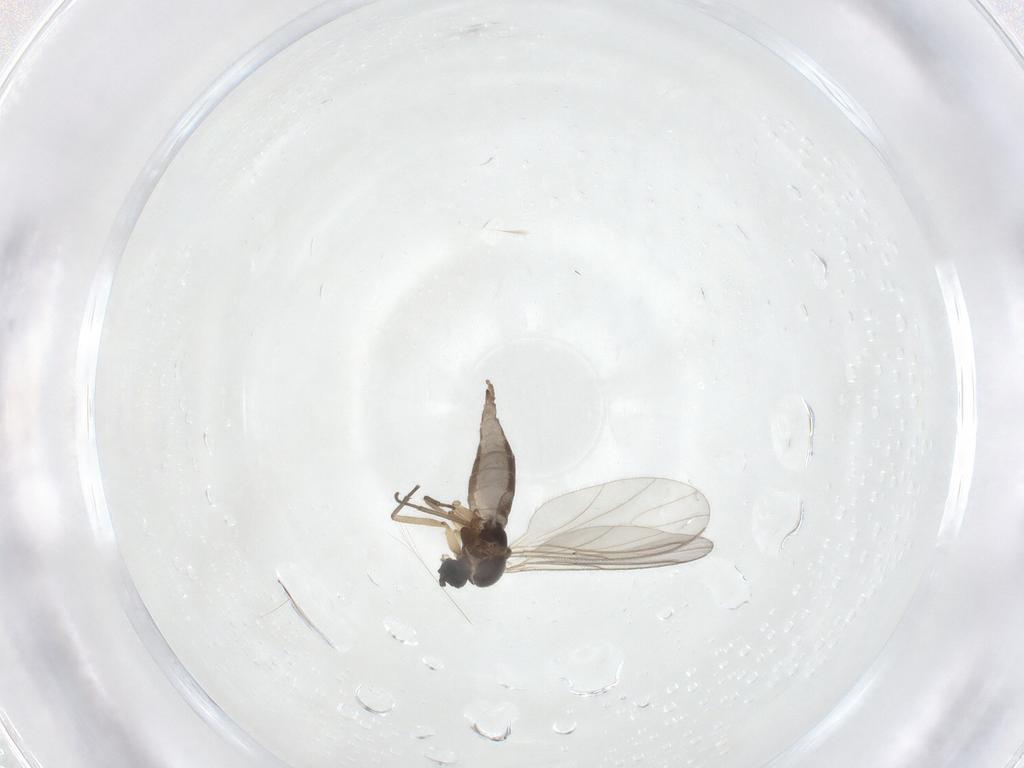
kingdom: Animalia
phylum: Arthropoda
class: Insecta
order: Diptera
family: Sciaridae
